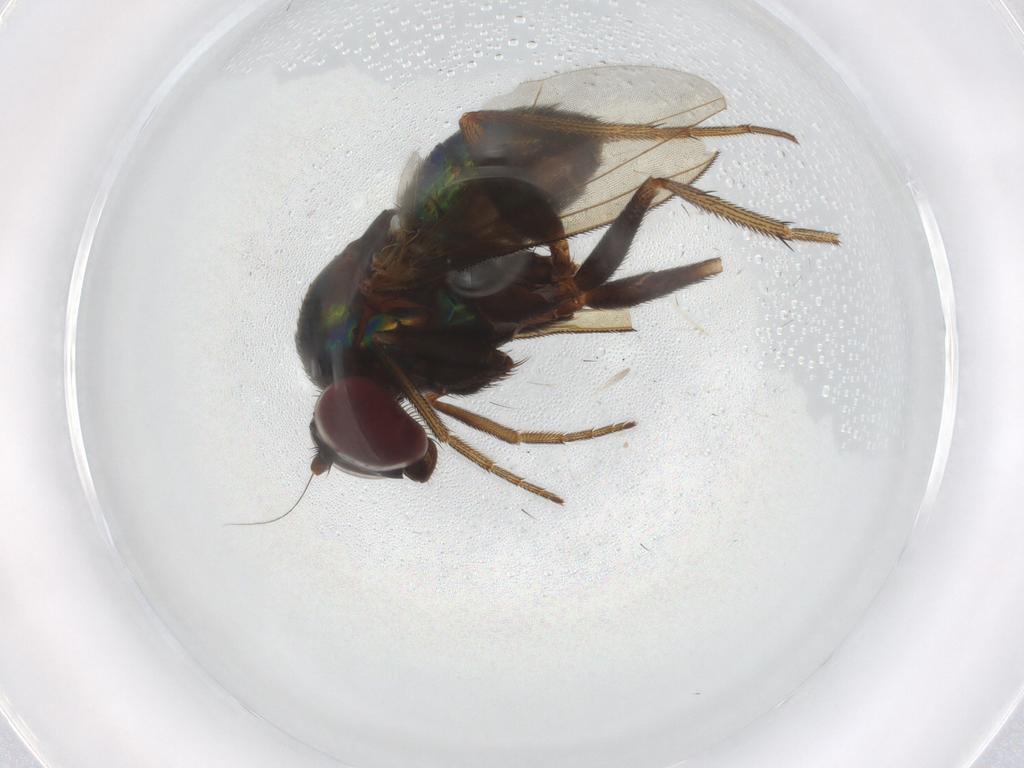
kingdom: Animalia
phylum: Arthropoda
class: Insecta
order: Diptera
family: Dolichopodidae
